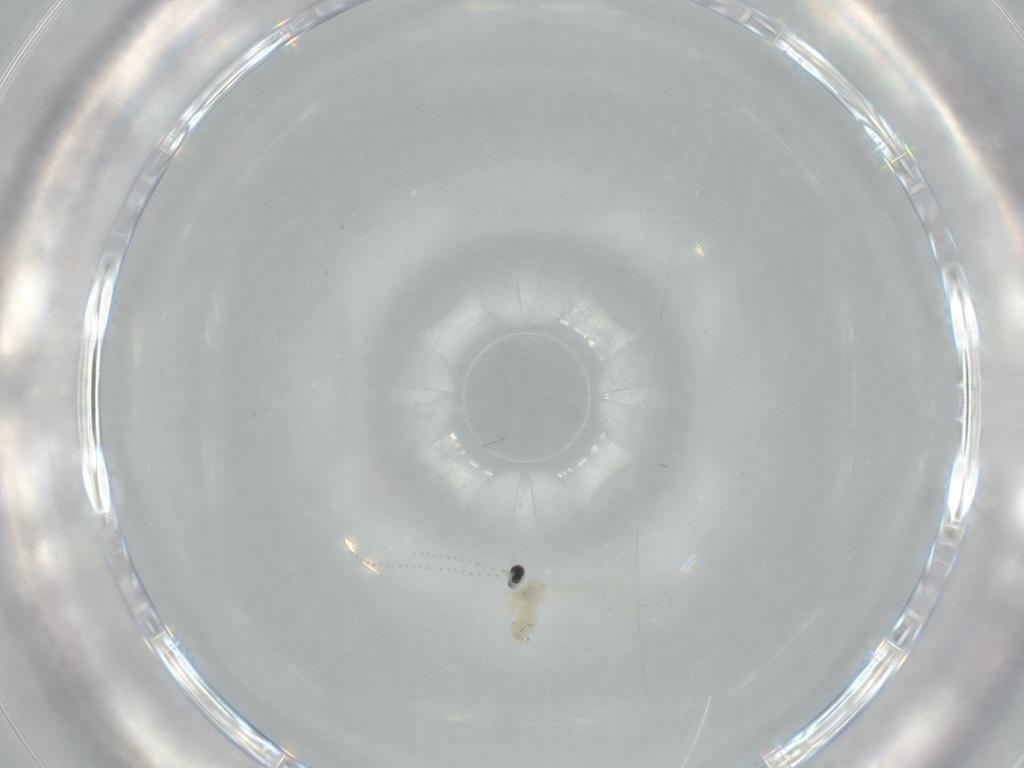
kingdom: Animalia
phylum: Arthropoda
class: Insecta
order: Diptera
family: Cecidomyiidae
